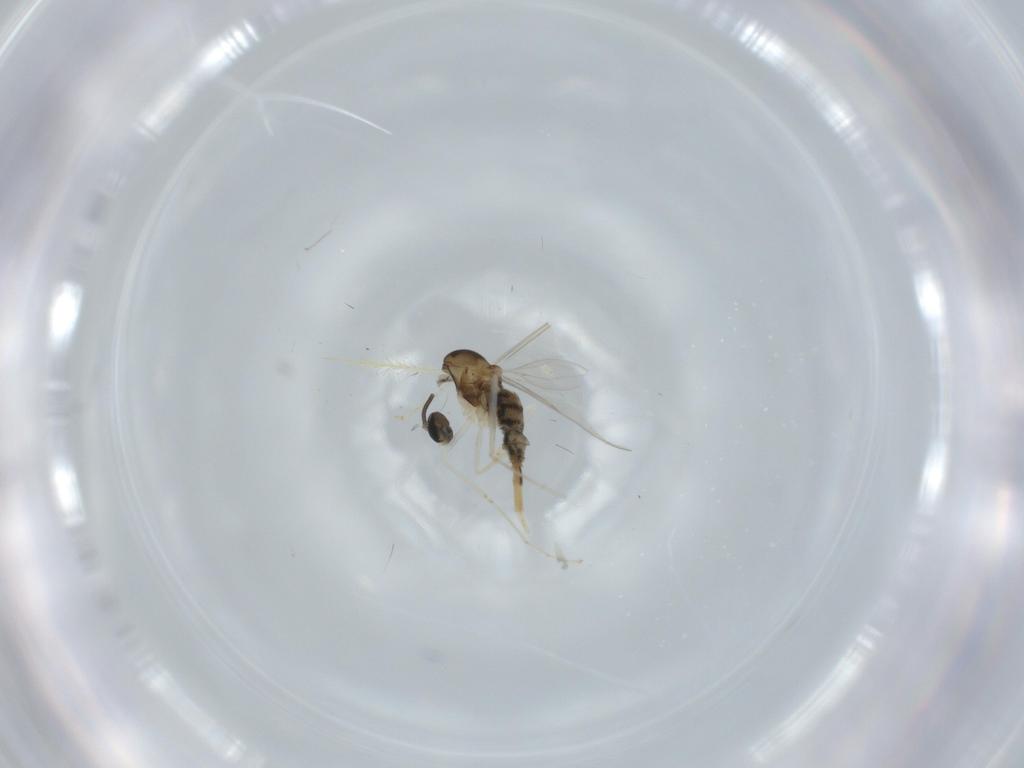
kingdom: Animalia
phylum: Arthropoda
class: Insecta
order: Diptera
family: Cecidomyiidae
